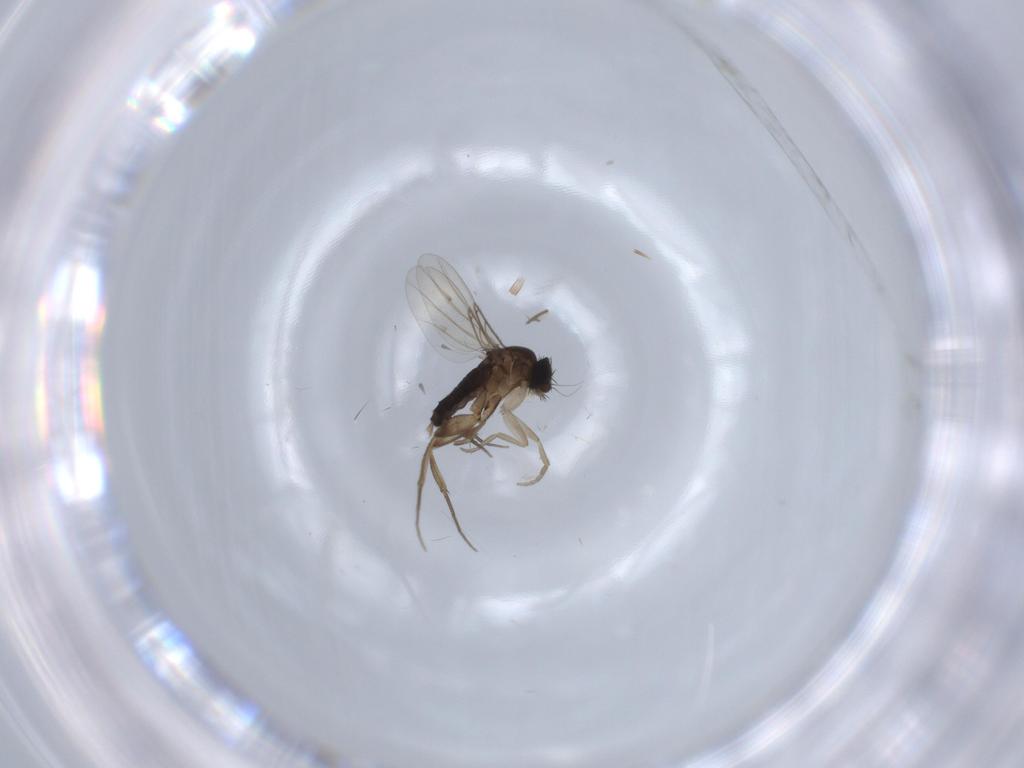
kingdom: Animalia
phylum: Arthropoda
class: Insecta
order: Diptera
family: Phoridae
